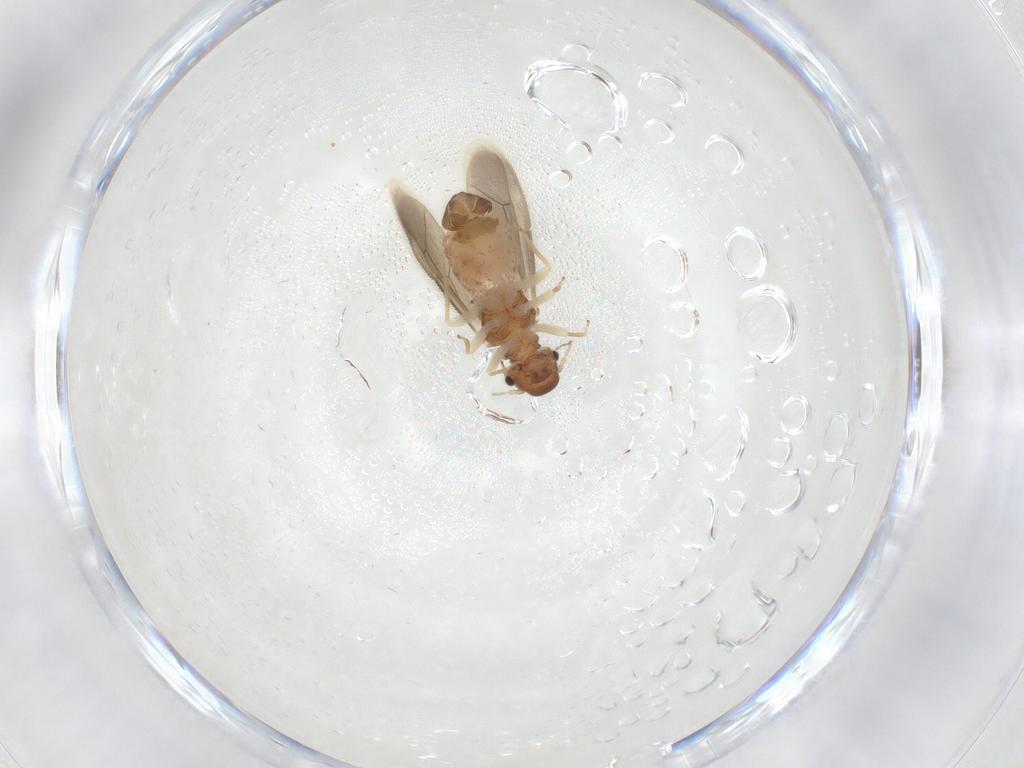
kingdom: Animalia
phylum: Arthropoda
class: Insecta
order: Psocodea
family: Archipsocidae
